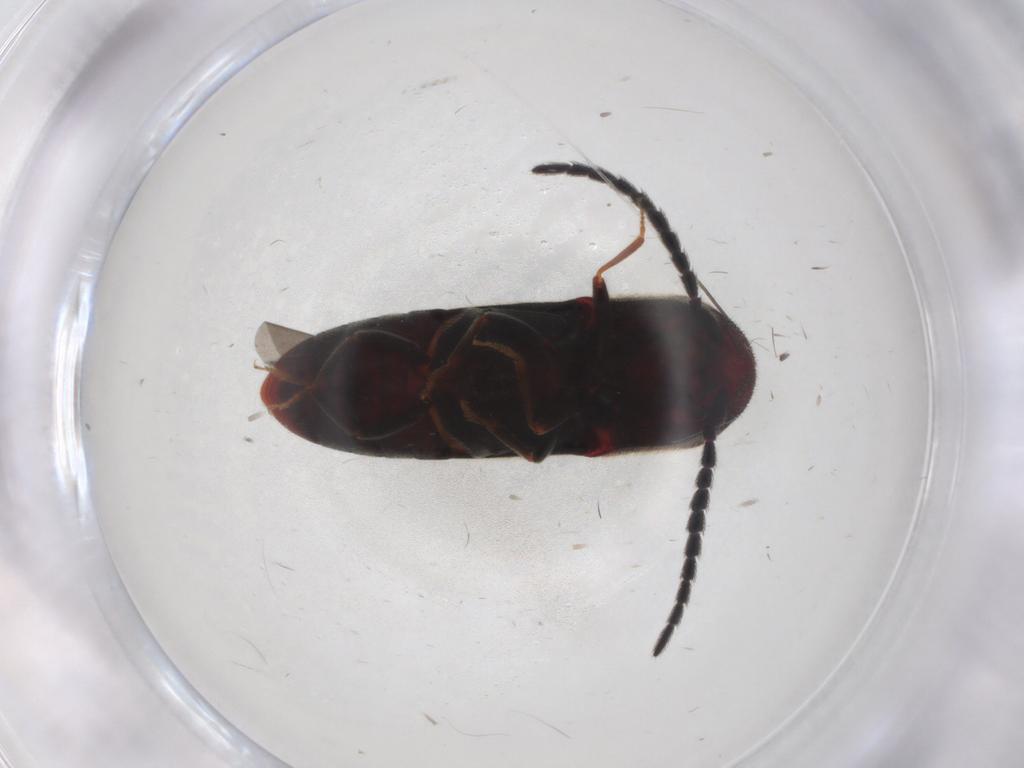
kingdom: Animalia
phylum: Arthropoda
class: Insecta
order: Coleoptera
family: Eucnemidae
